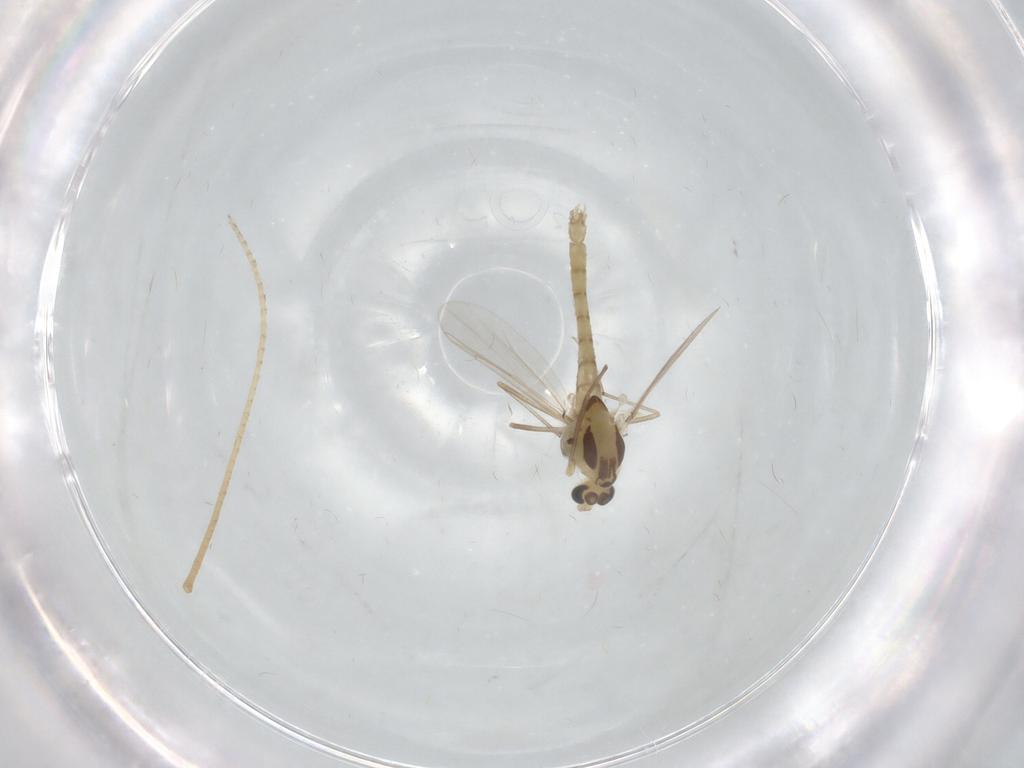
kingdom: Animalia
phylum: Arthropoda
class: Insecta
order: Diptera
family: Chironomidae
